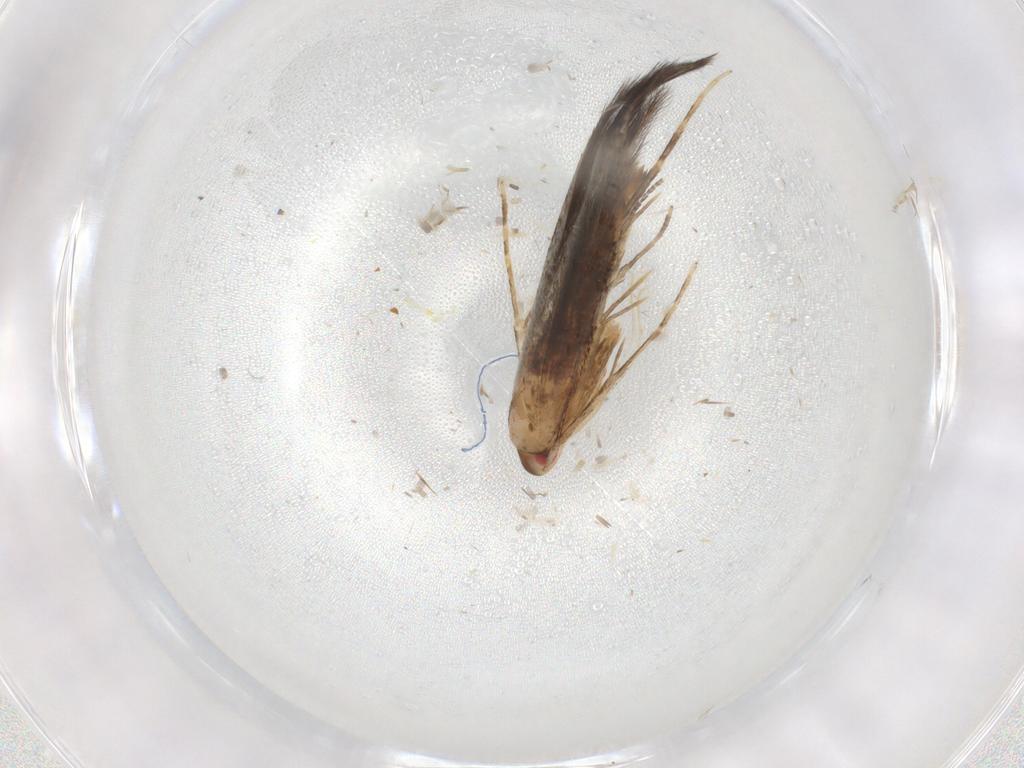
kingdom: Animalia
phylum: Arthropoda
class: Insecta
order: Lepidoptera
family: Cosmopterigidae
